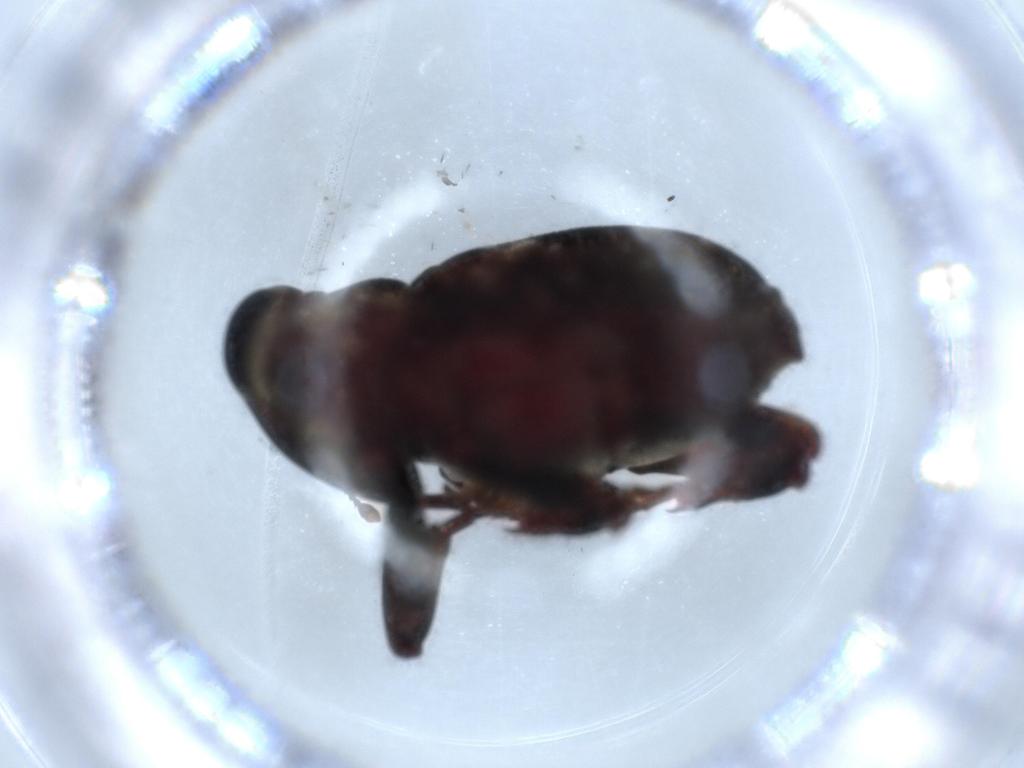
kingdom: Animalia
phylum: Arthropoda
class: Insecta
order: Coleoptera
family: Chrysomelidae
